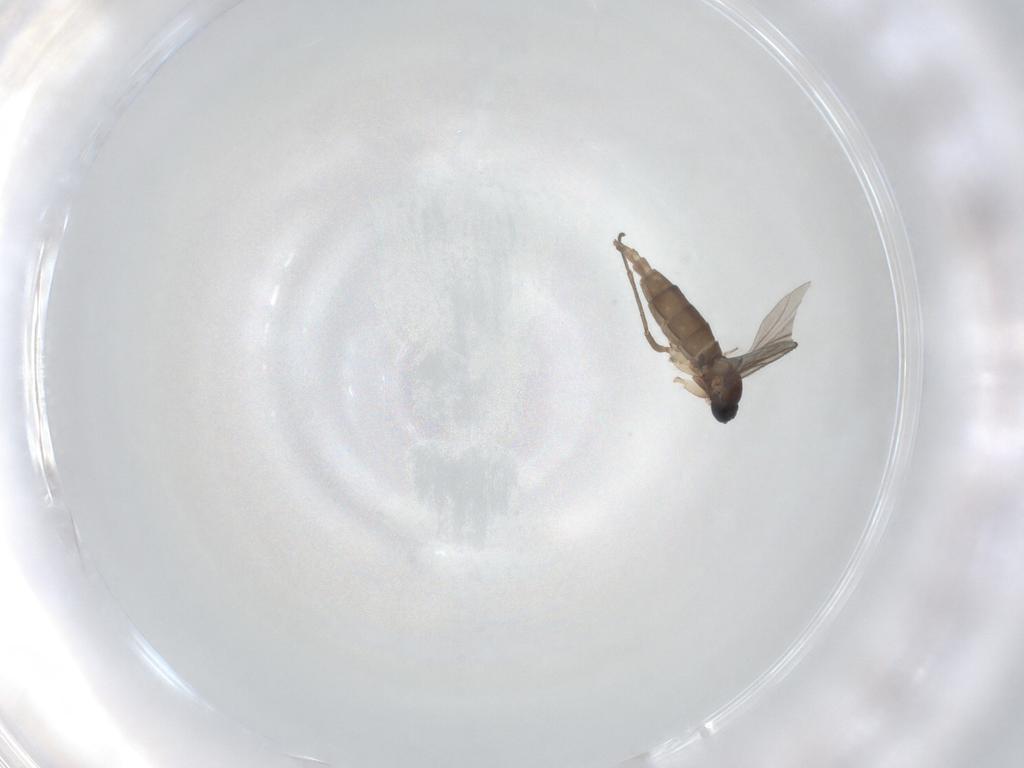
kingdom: Animalia
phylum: Arthropoda
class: Insecta
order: Diptera
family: Sciaridae
